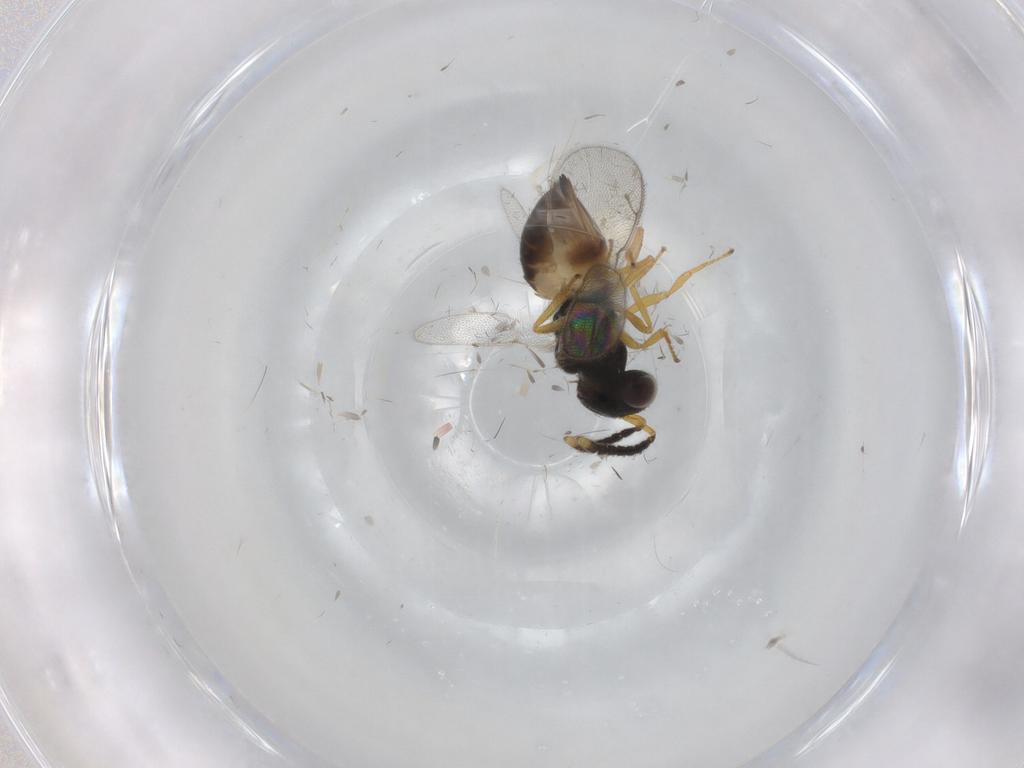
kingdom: Animalia
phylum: Arthropoda
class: Insecta
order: Hymenoptera
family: Pteromalidae
